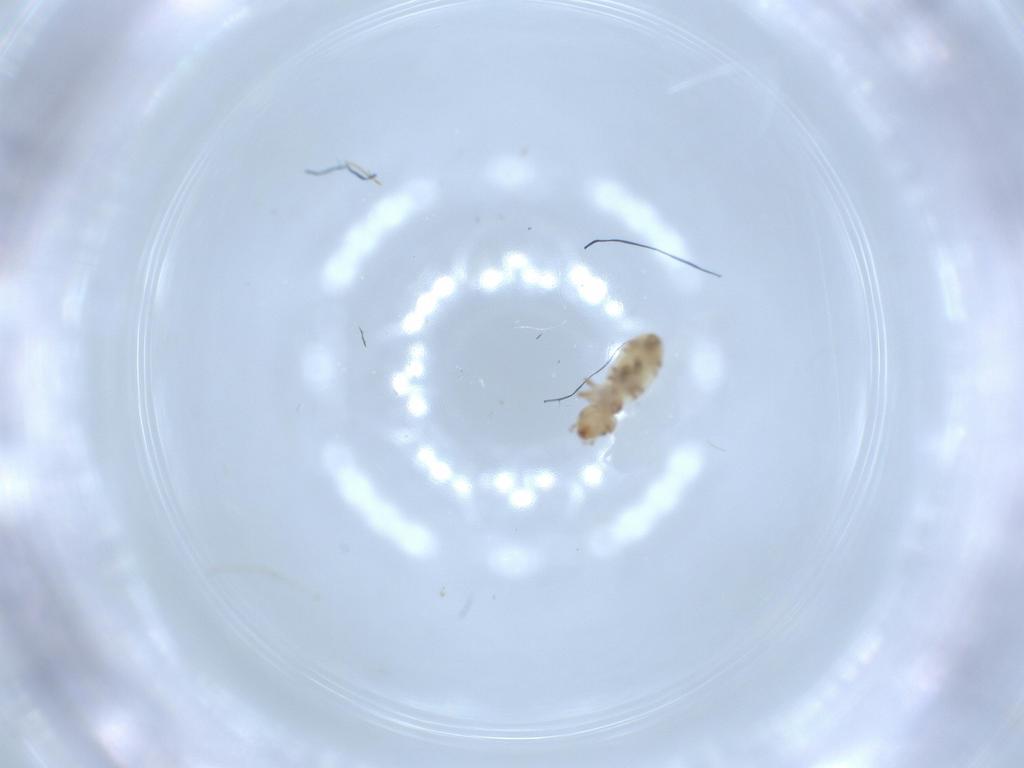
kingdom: Animalia
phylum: Arthropoda
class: Insecta
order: Psocodea
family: Liposcelididae
